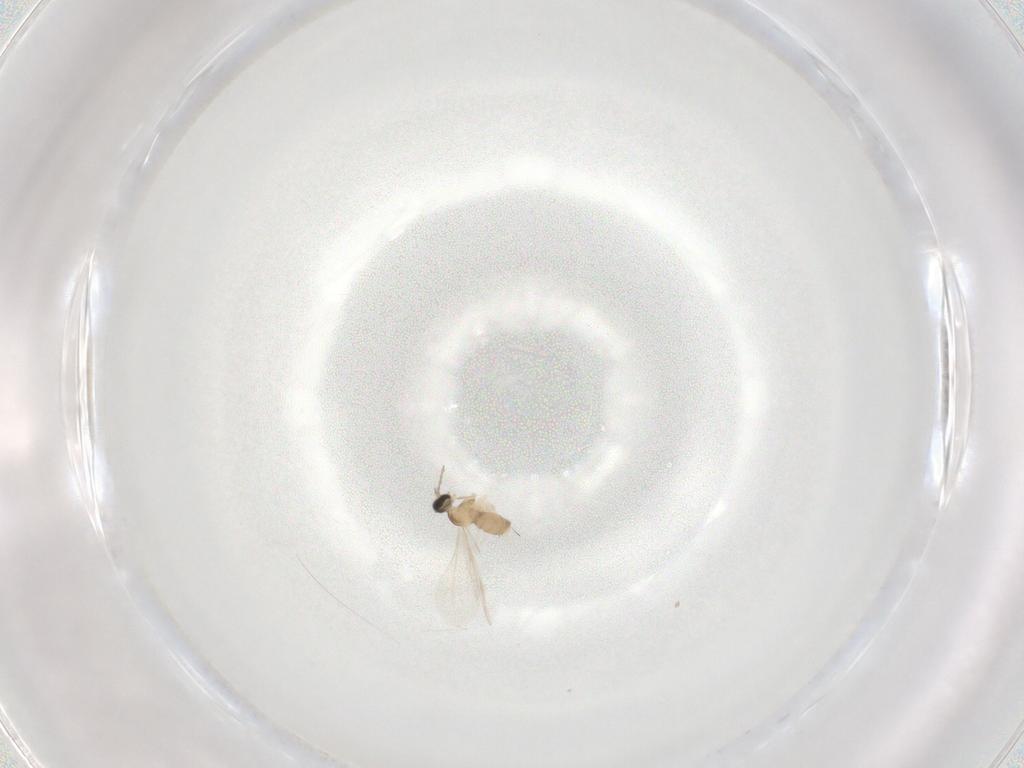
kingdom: Animalia
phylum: Arthropoda
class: Insecta
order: Diptera
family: Cecidomyiidae
